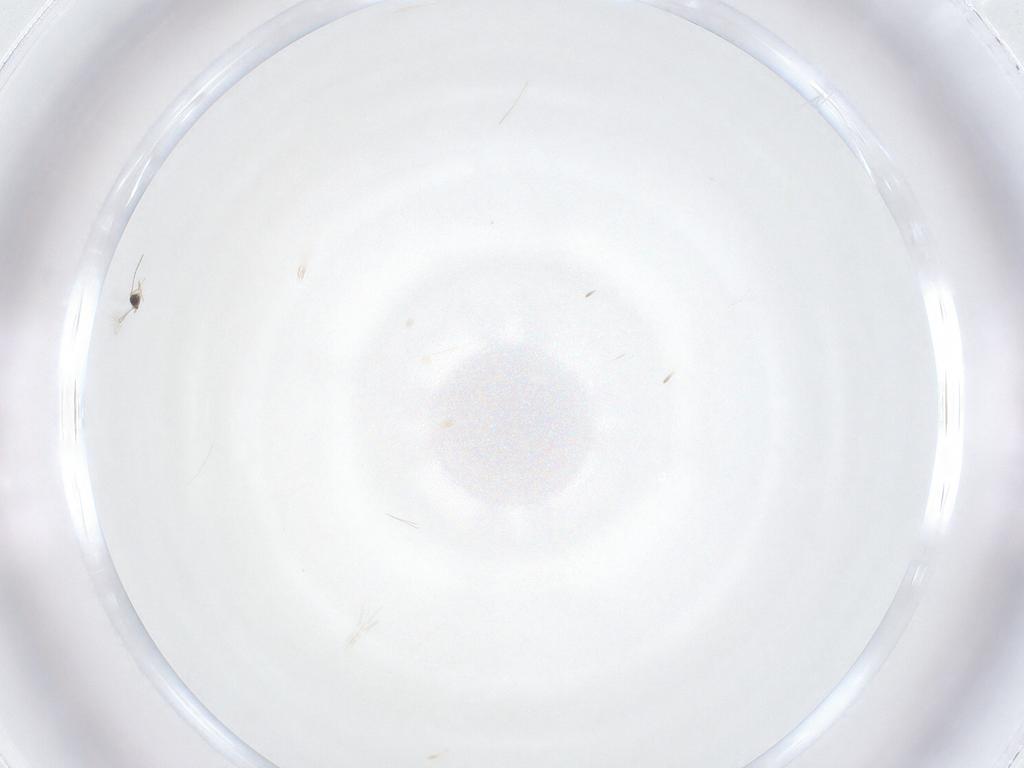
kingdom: Animalia
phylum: Arthropoda
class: Insecta
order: Hymenoptera
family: Mymaridae
